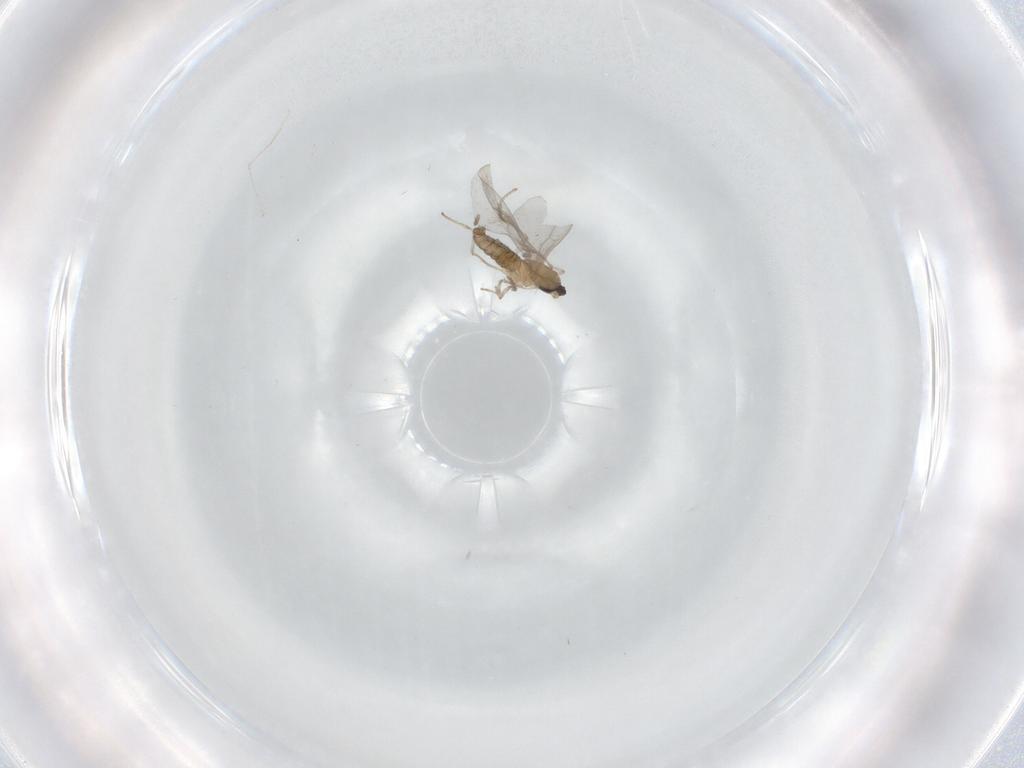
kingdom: Animalia
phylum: Arthropoda
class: Insecta
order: Diptera
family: Cecidomyiidae
